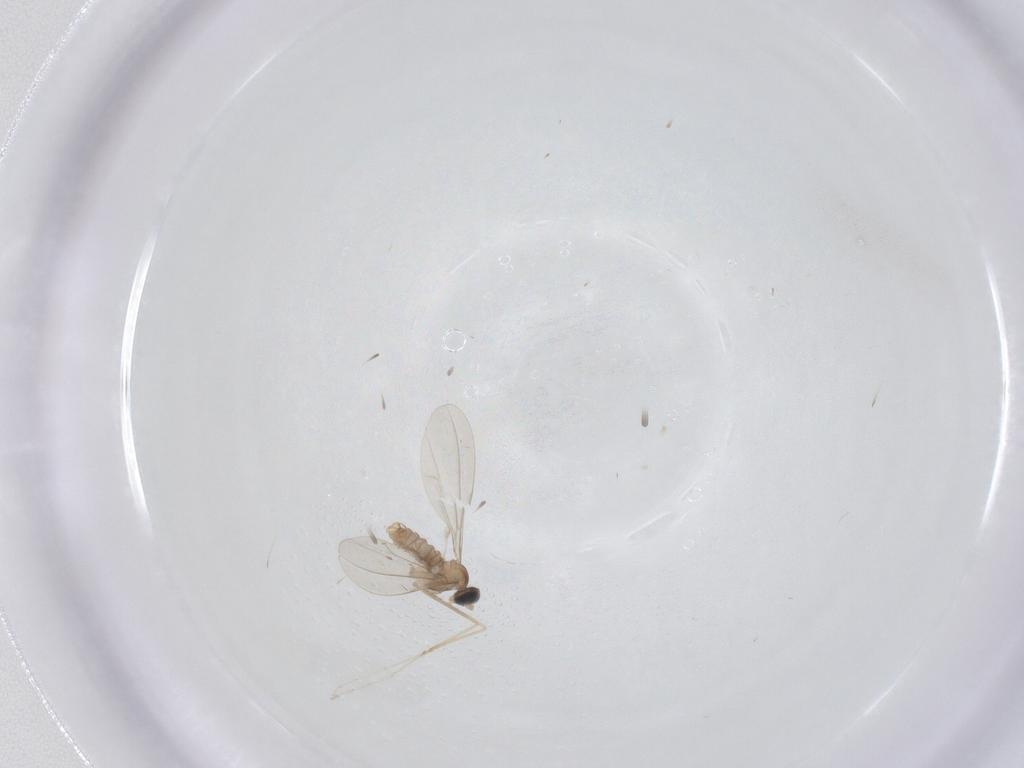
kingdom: Animalia
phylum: Arthropoda
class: Insecta
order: Diptera
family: Cecidomyiidae
